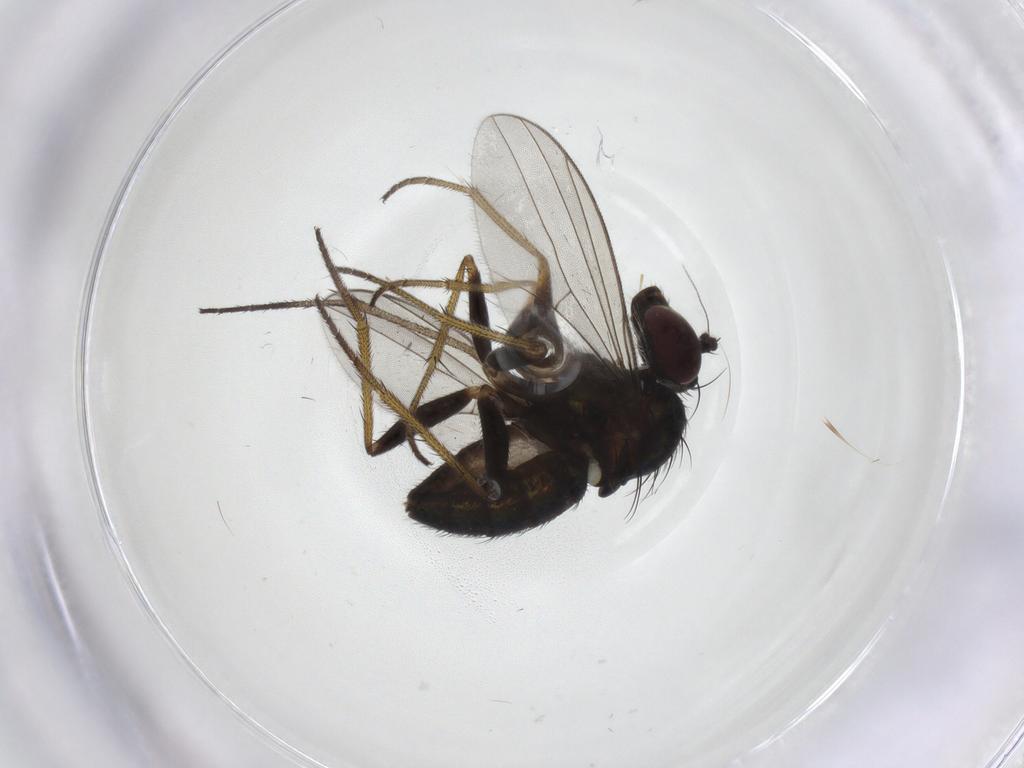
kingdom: Animalia
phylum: Arthropoda
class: Insecta
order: Diptera
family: Sciaridae
